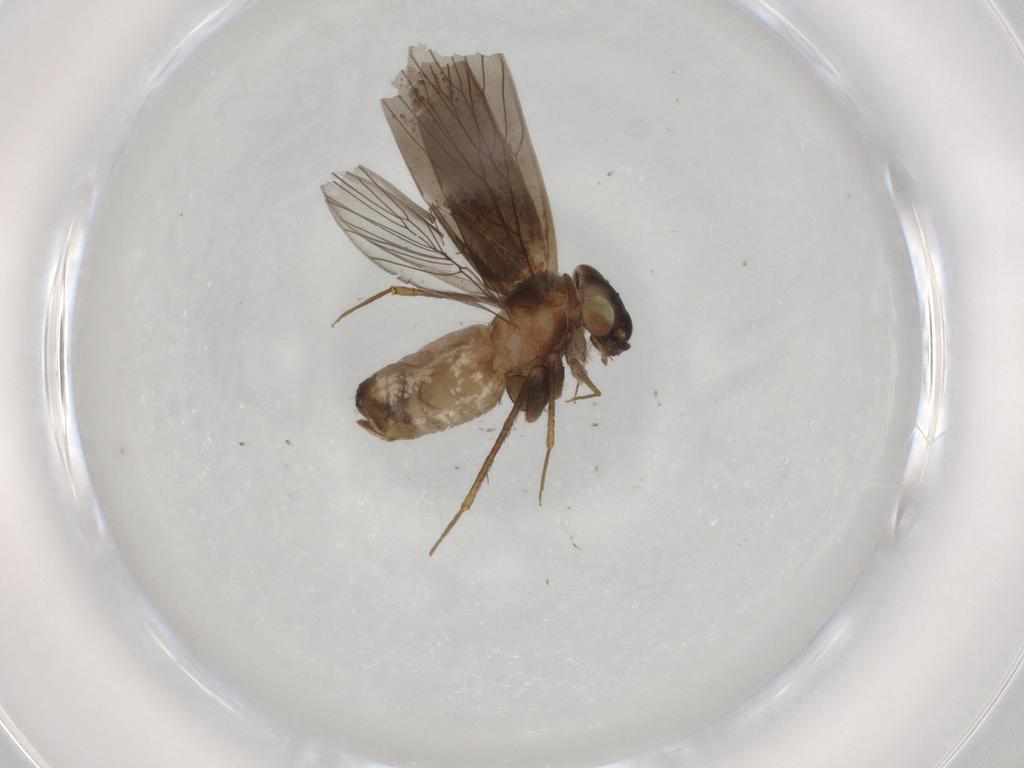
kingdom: Animalia
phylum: Arthropoda
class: Insecta
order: Psocodea
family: Lepidopsocidae
